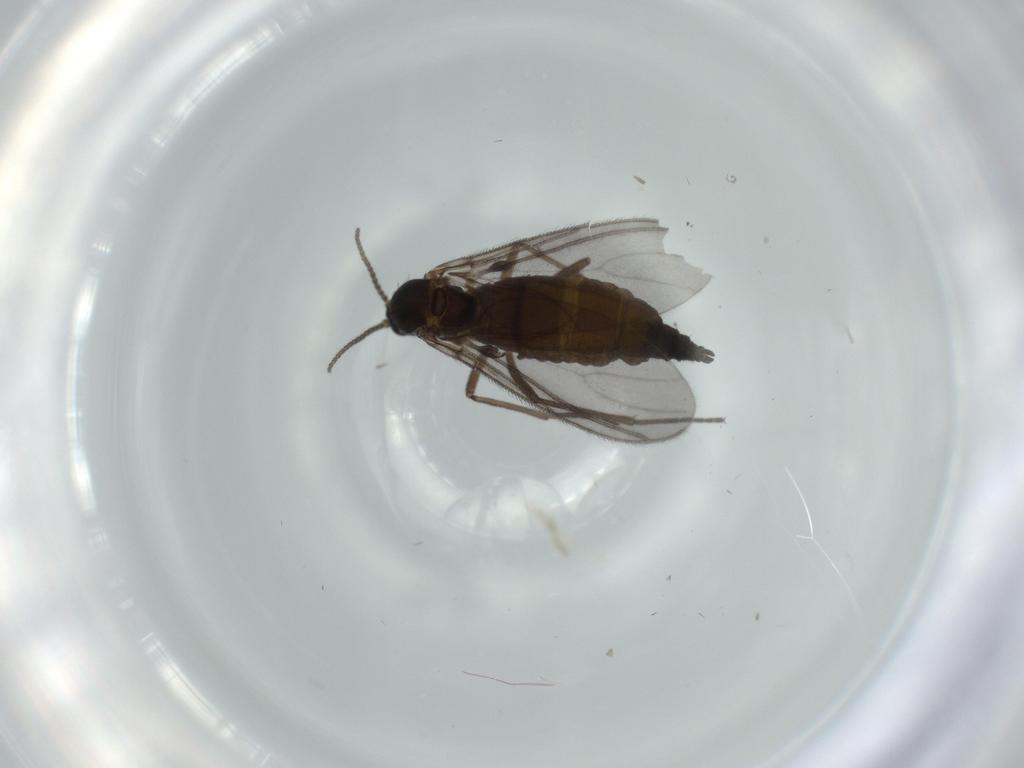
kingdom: Animalia
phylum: Arthropoda
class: Insecta
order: Diptera
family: Sciaridae
